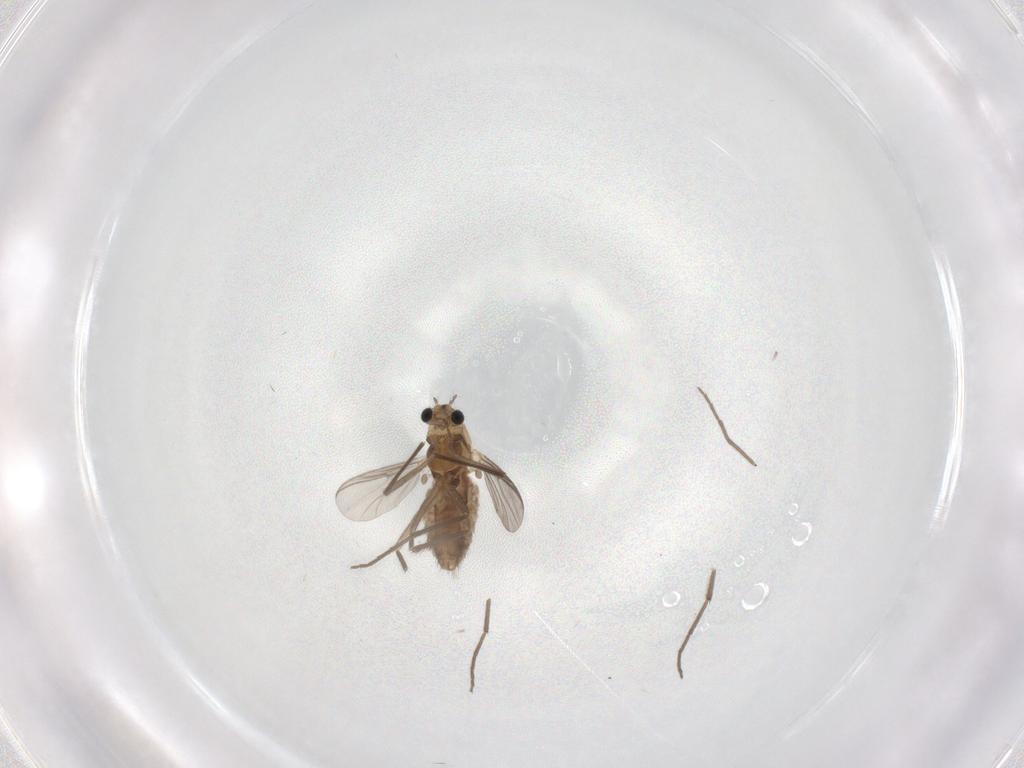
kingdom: Animalia
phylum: Arthropoda
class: Insecta
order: Diptera
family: Chironomidae
